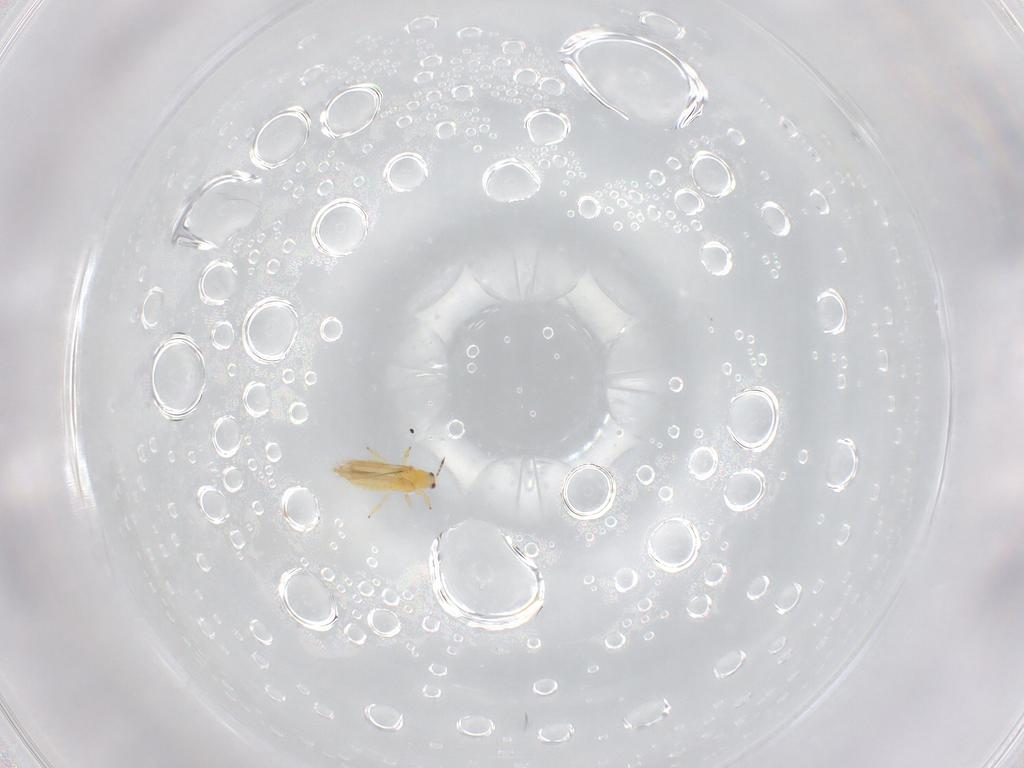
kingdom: Animalia
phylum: Arthropoda
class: Insecta
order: Thysanoptera
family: Thripidae
